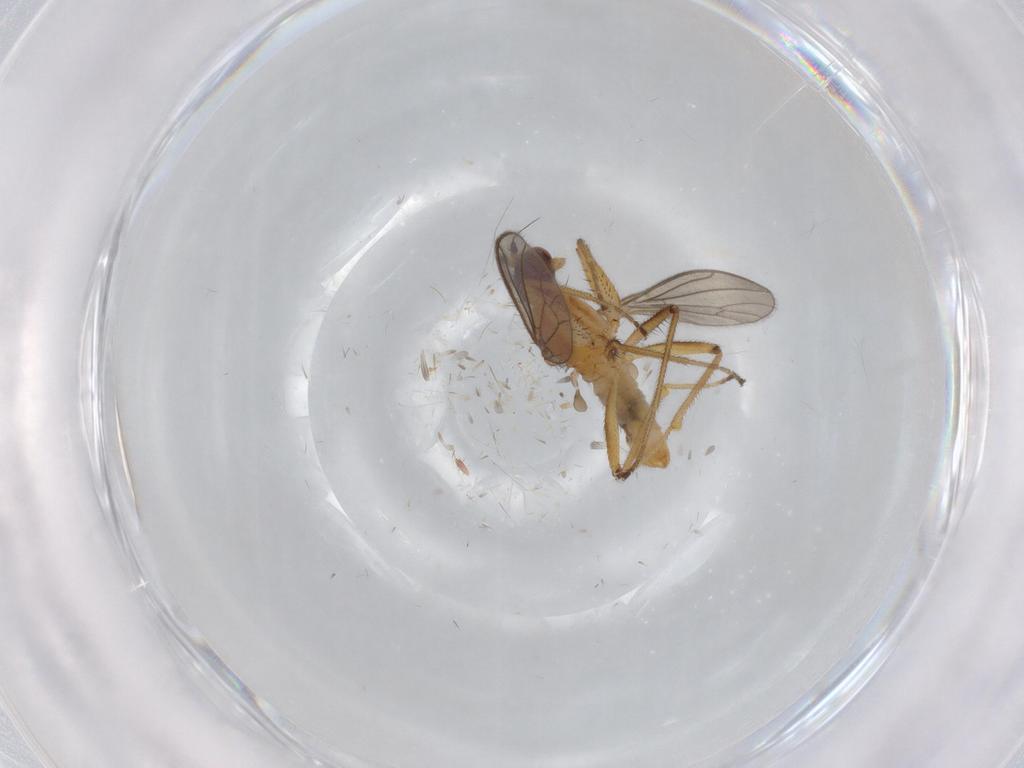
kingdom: Animalia
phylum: Arthropoda
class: Insecta
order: Diptera
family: Empididae
